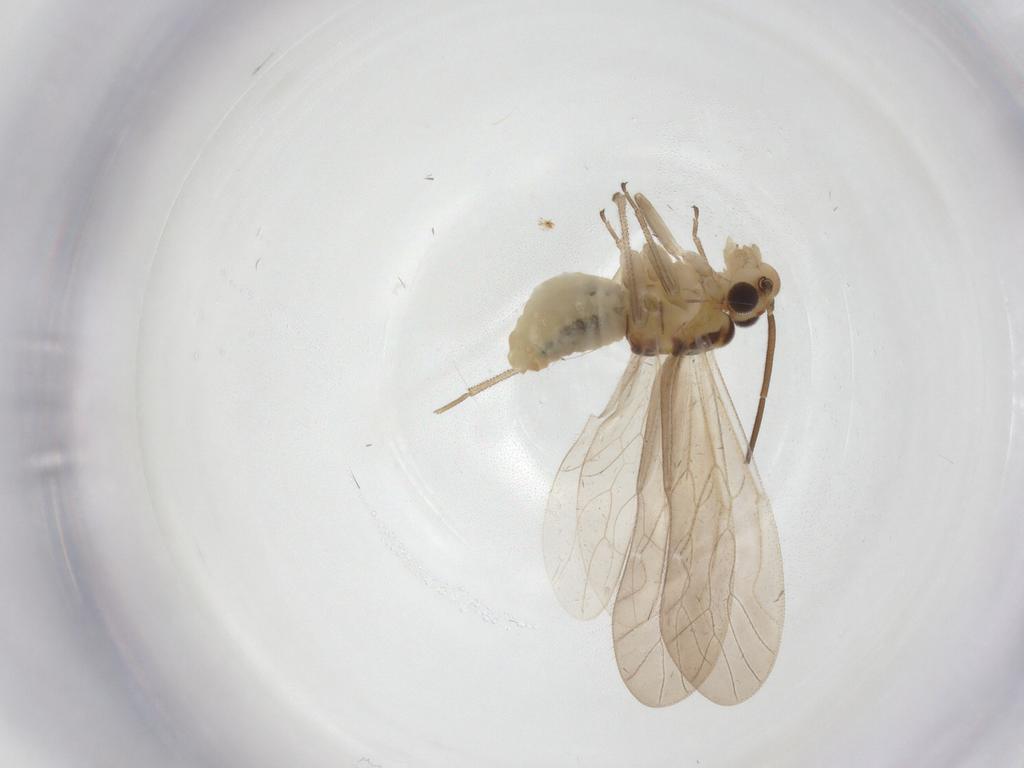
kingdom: Animalia
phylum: Arthropoda
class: Insecta
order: Psocodea
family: Caeciliusidae
